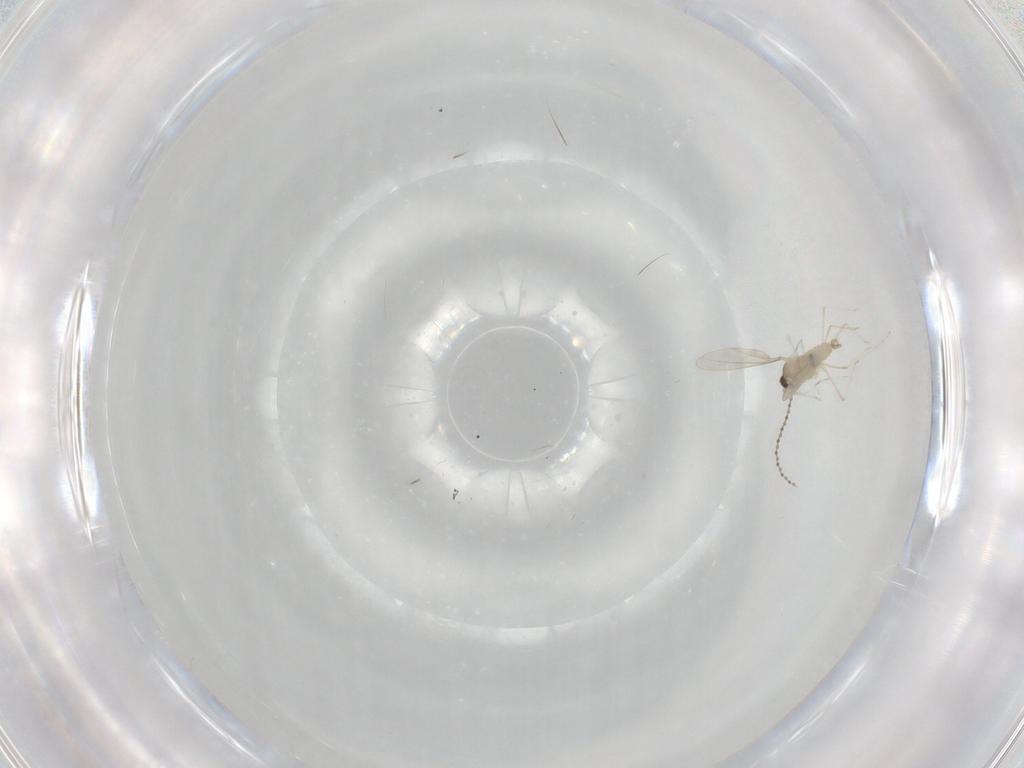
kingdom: Animalia
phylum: Arthropoda
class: Insecta
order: Diptera
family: Cecidomyiidae
